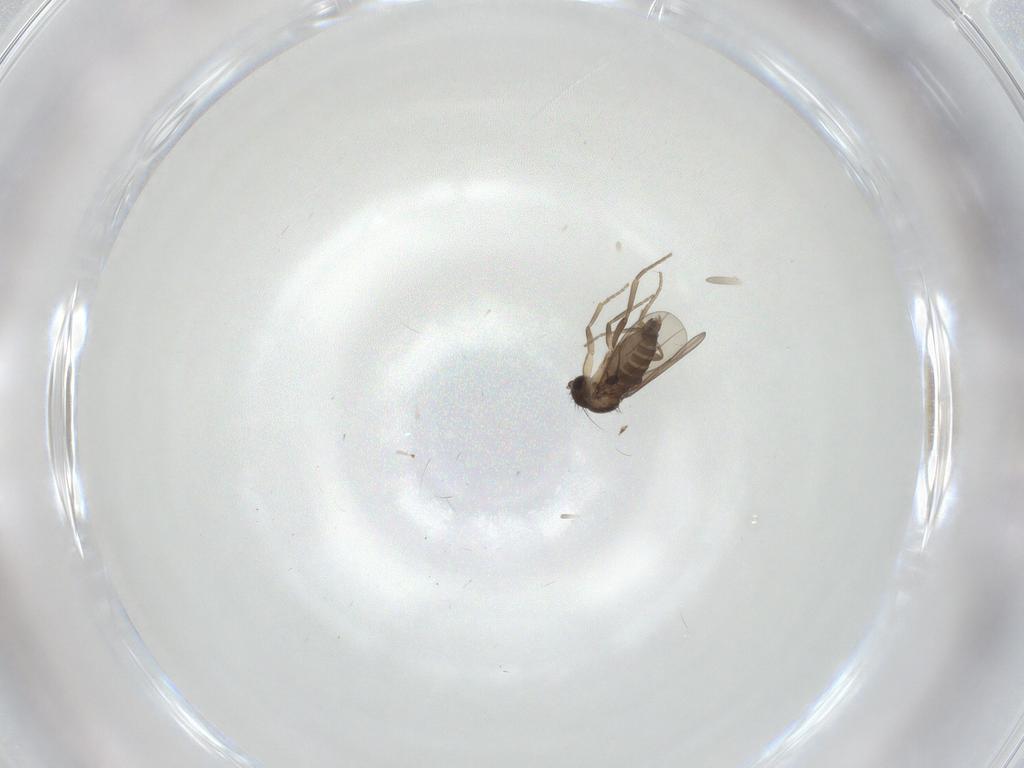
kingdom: Animalia
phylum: Arthropoda
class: Insecta
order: Diptera
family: Phoridae
